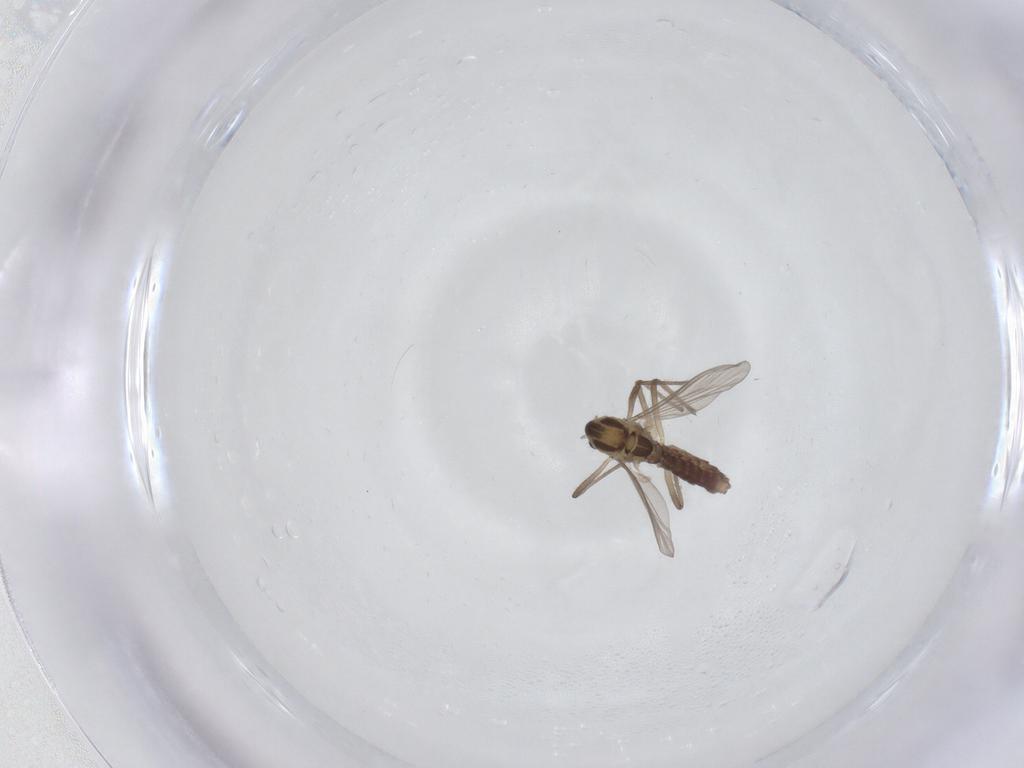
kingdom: Animalia
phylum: Arthropoda
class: Insecta
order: Diptera
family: Chironomidae
